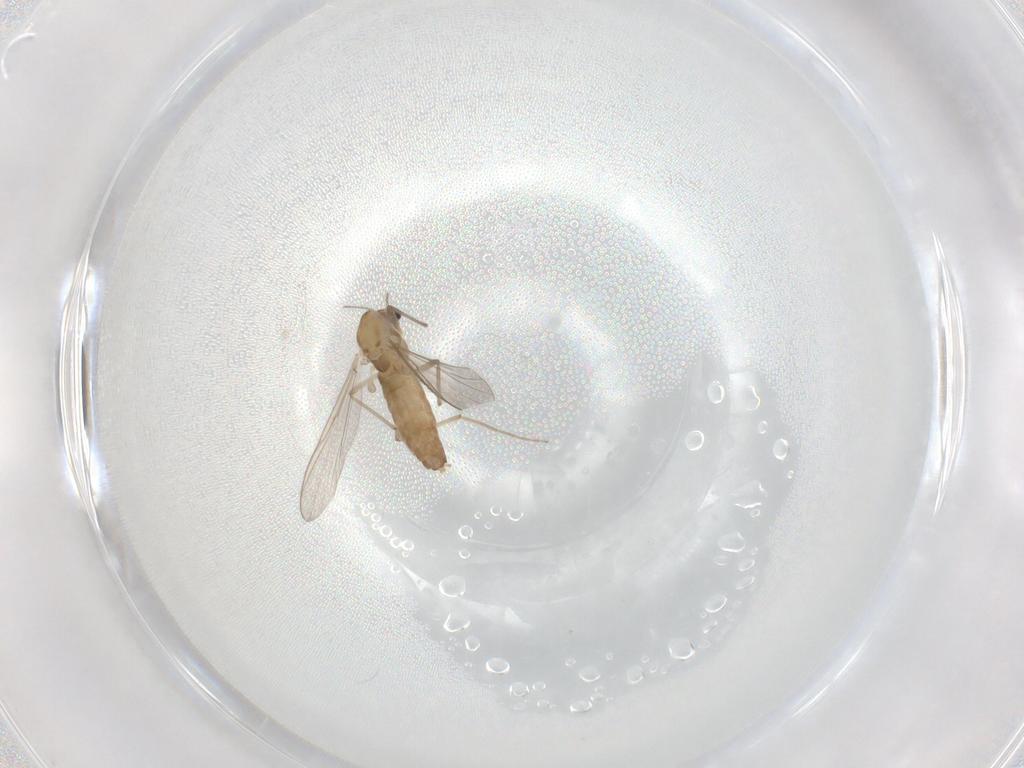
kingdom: Animalia
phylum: Arthropoda
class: Insecta
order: Diptera
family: Chironomidae
